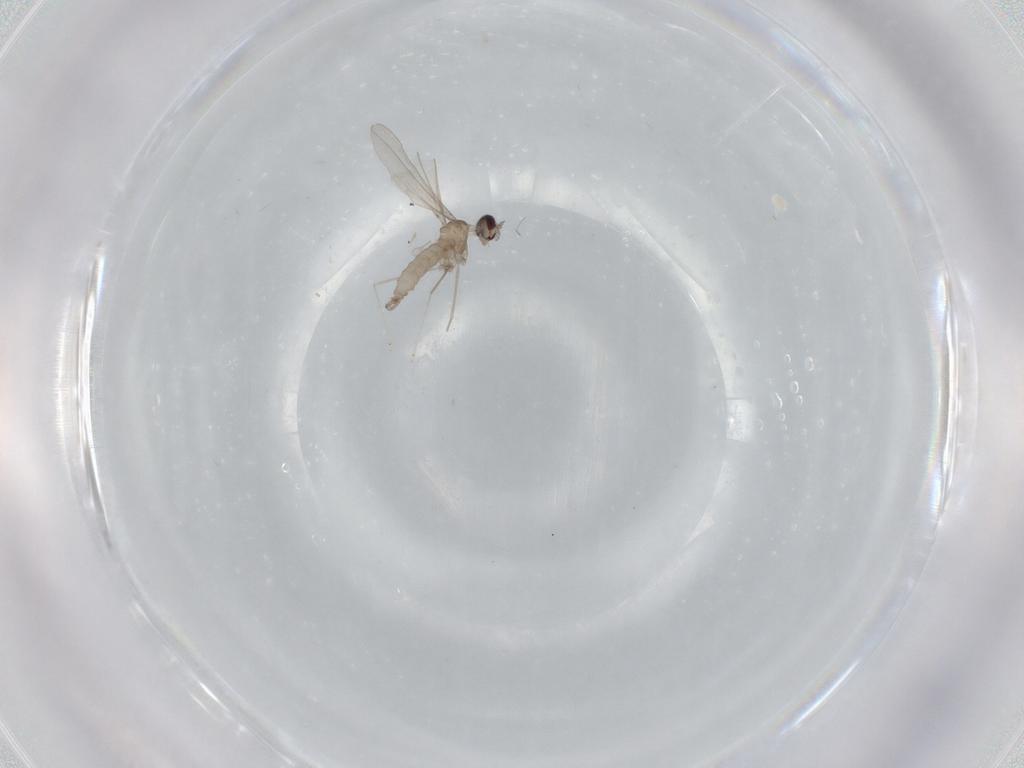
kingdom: Animalia
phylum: Arthropoda
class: Insecta
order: Diptera
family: Cecidomyiidae
